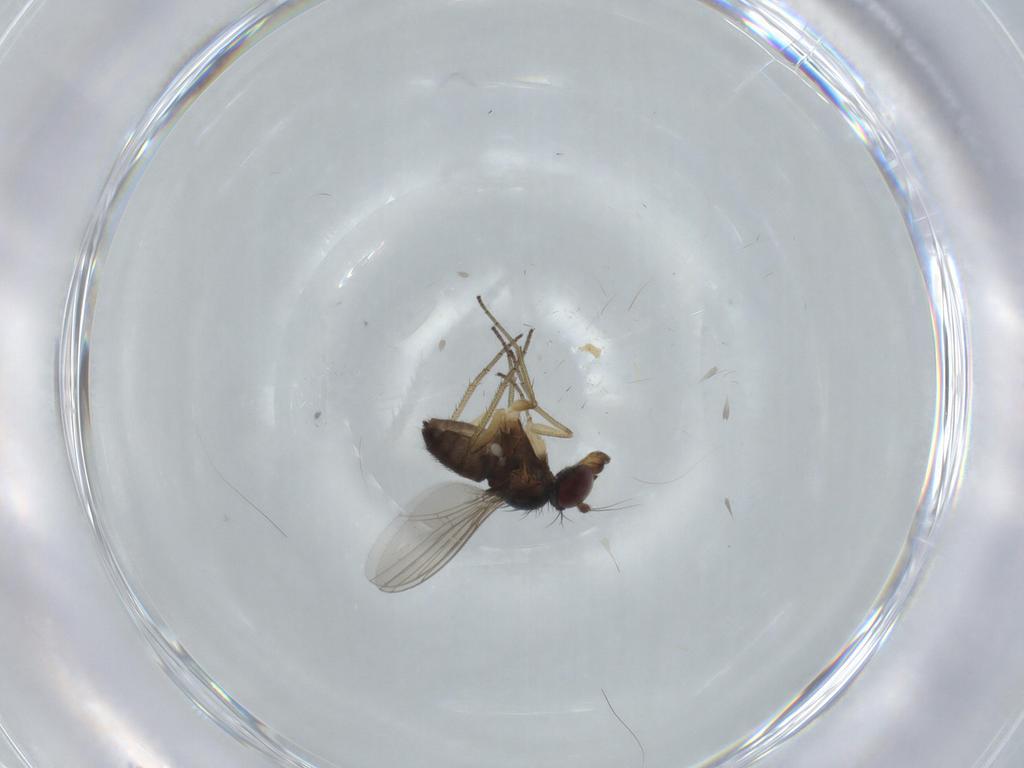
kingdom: Animalia
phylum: Arthropoda
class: Insecta
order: Diptera
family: Dolichopodidae
